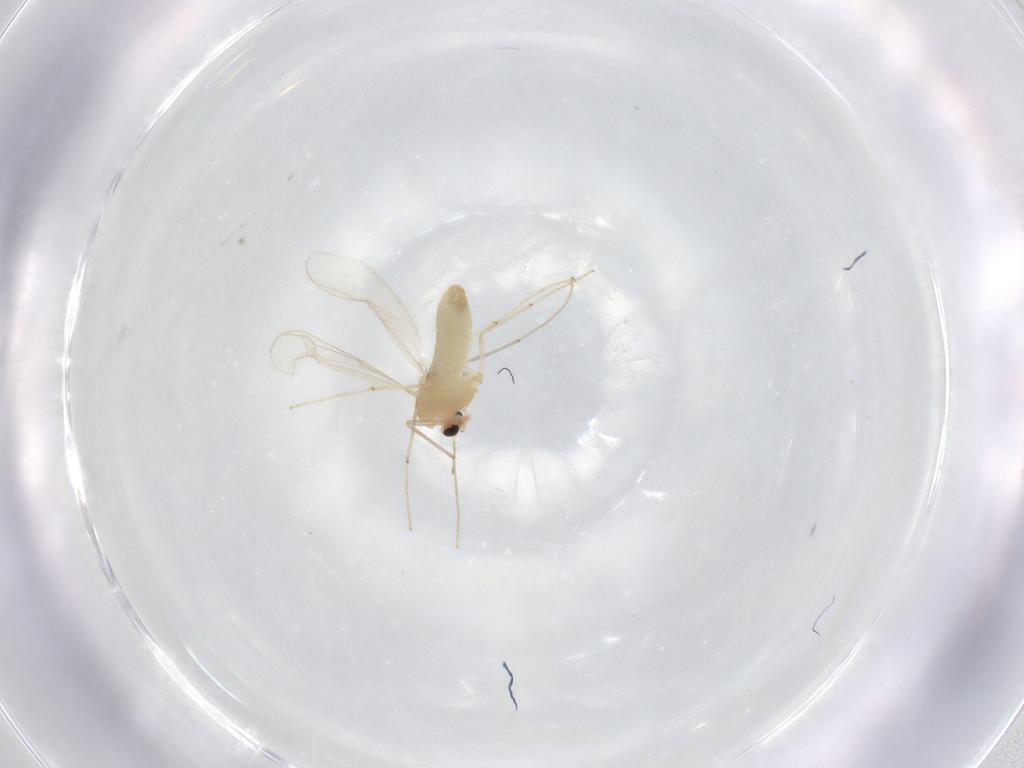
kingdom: Animalia
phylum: Arthropoda
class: Insecta
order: Diptera
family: Chironomidae
